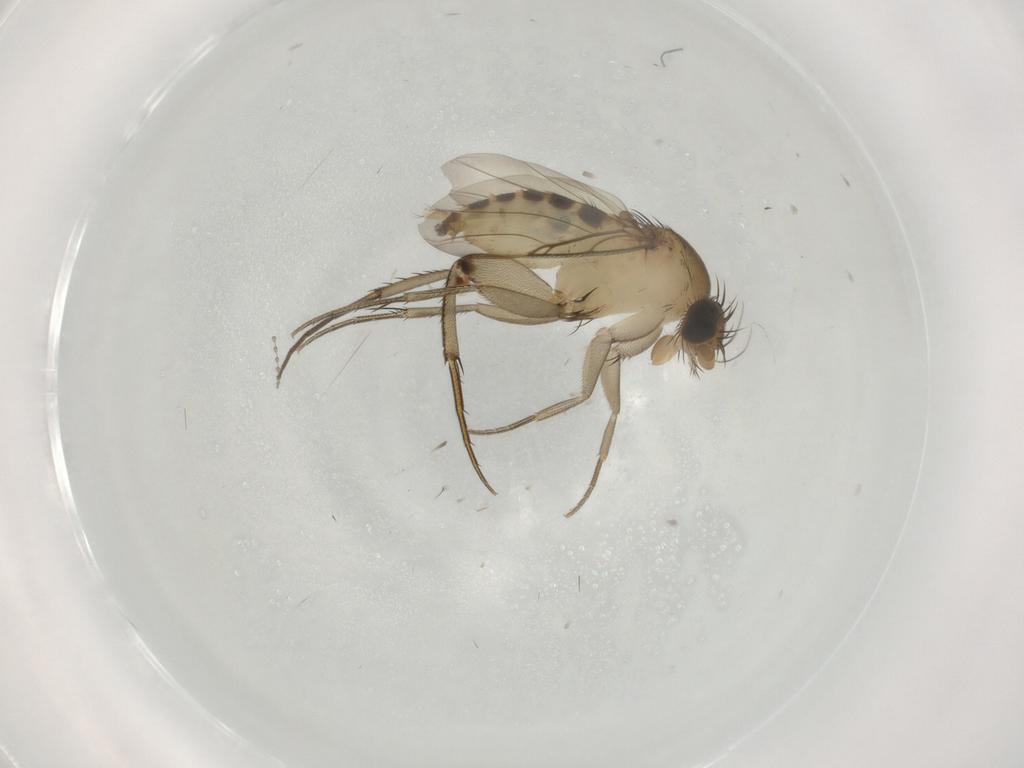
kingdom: Animalia
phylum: Arthropoda
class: Insecta
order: Diptera
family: Phoridae
